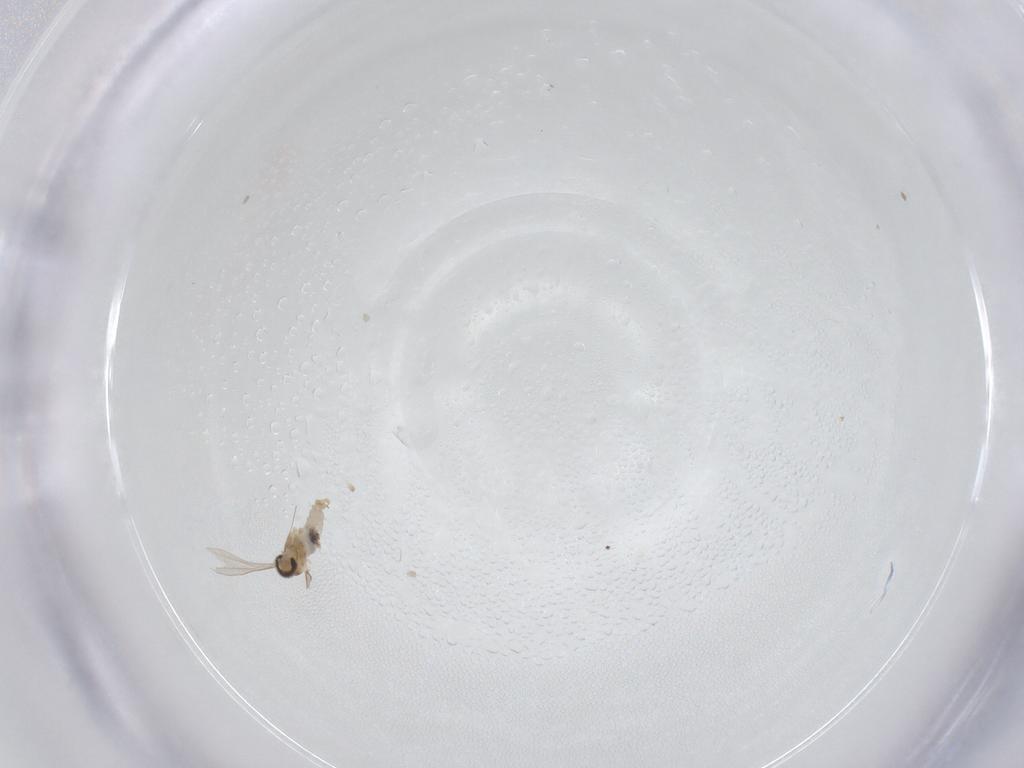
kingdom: Animalia
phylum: Arthropoda
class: Insecta
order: Diptera
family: Cecidomyiidae
